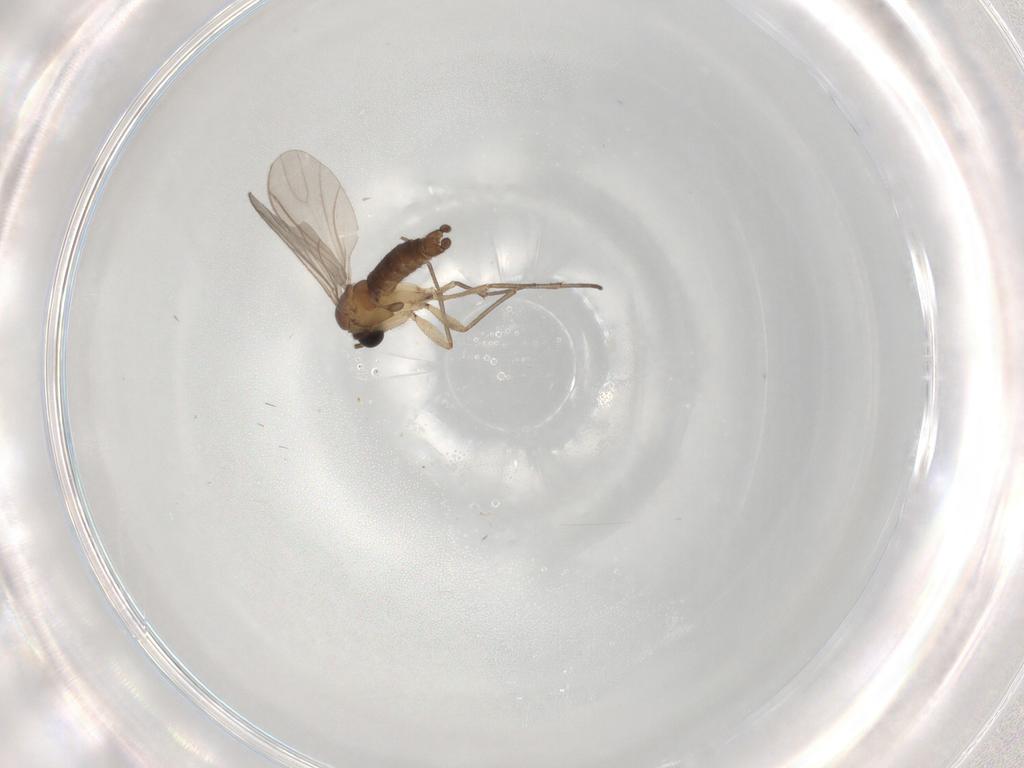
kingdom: Animalia
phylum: Arthropoda
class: Insecta
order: Diptera
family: Sciaridae
